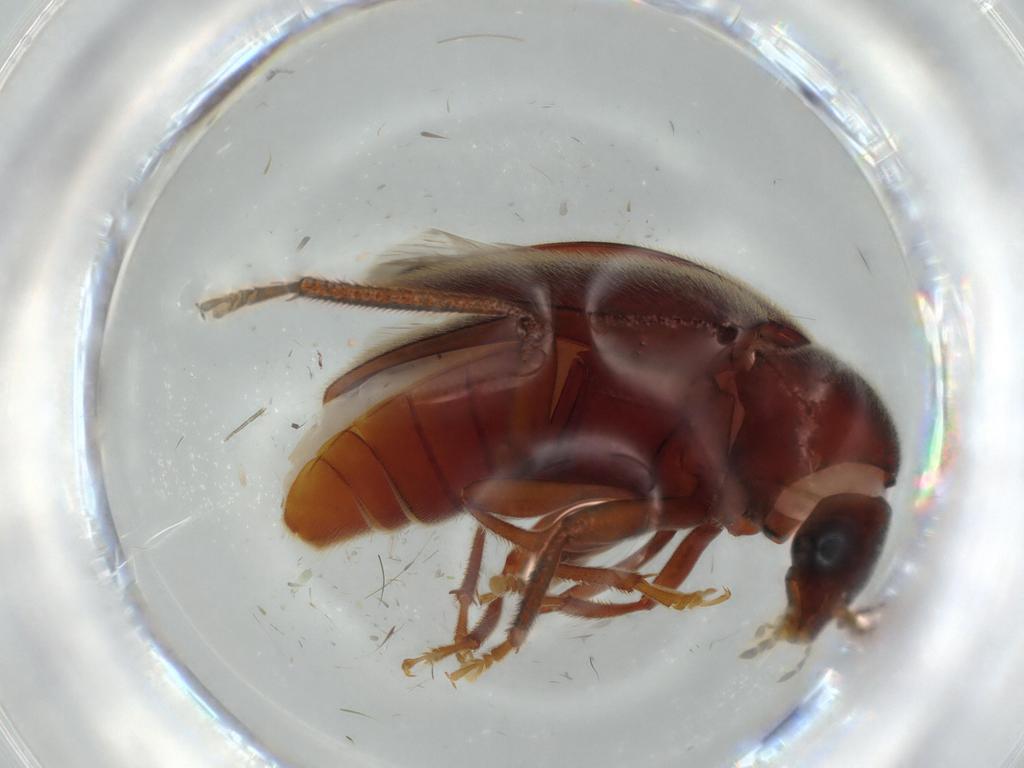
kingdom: Animalia
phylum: Arthropoda
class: Insecta
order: Coleoptera
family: Ptilodactylidae
